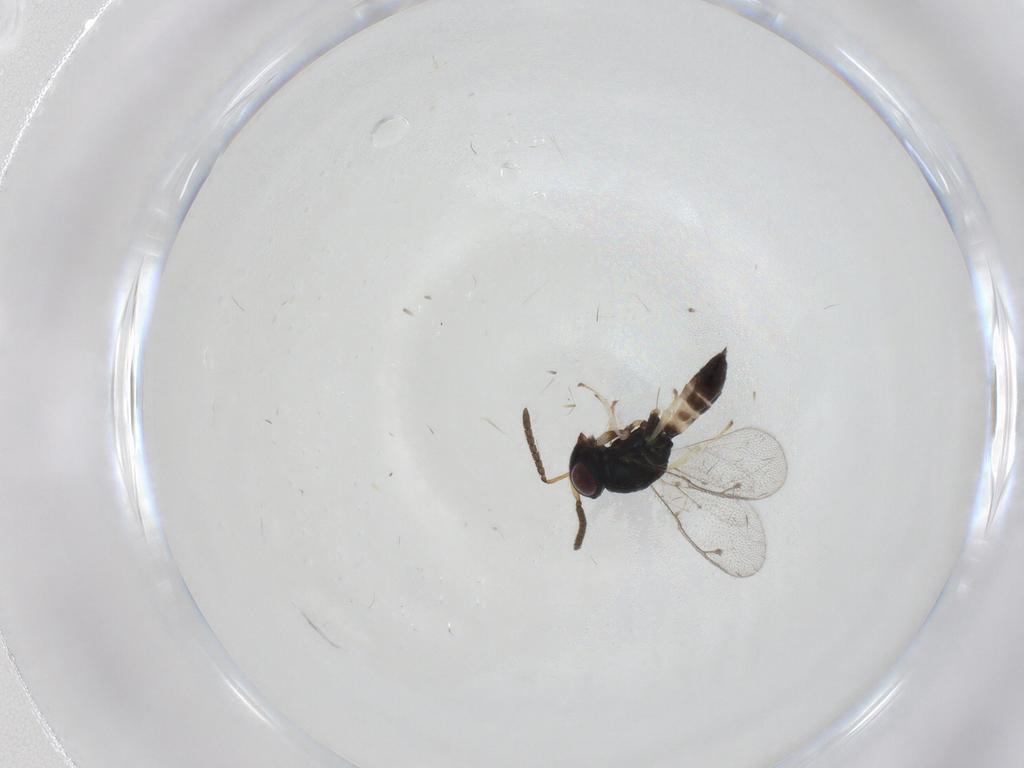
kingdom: Animalia
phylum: Arthropoda
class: Insecta
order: Hymenoptera
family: Pteromalidae
